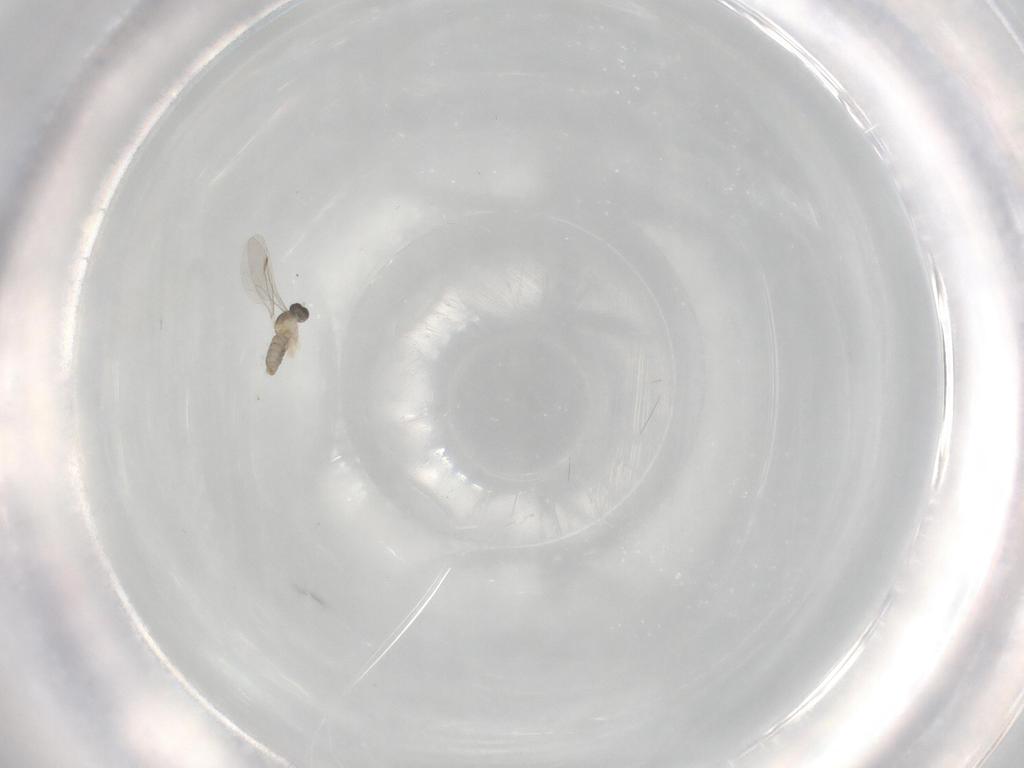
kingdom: Animalia
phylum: Arthropoda
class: Insecta
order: Diptera
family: Cecidomyiidae
